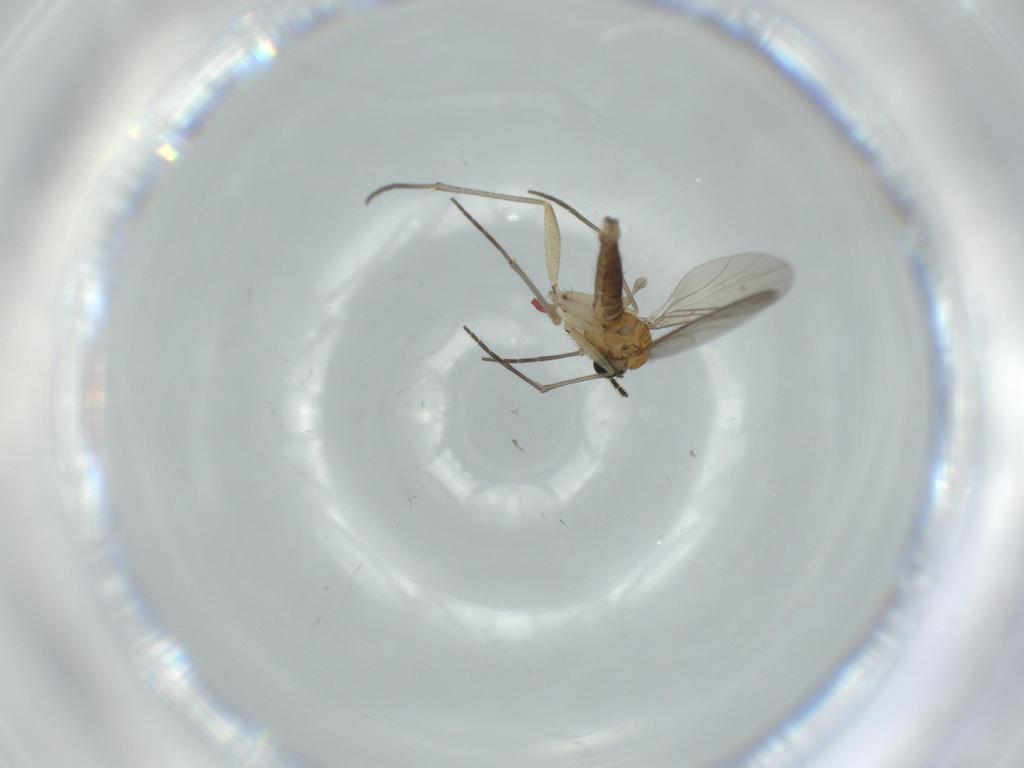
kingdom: Animalia
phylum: Arthropoda
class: Insecta
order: Diptera
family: Sciaridae
